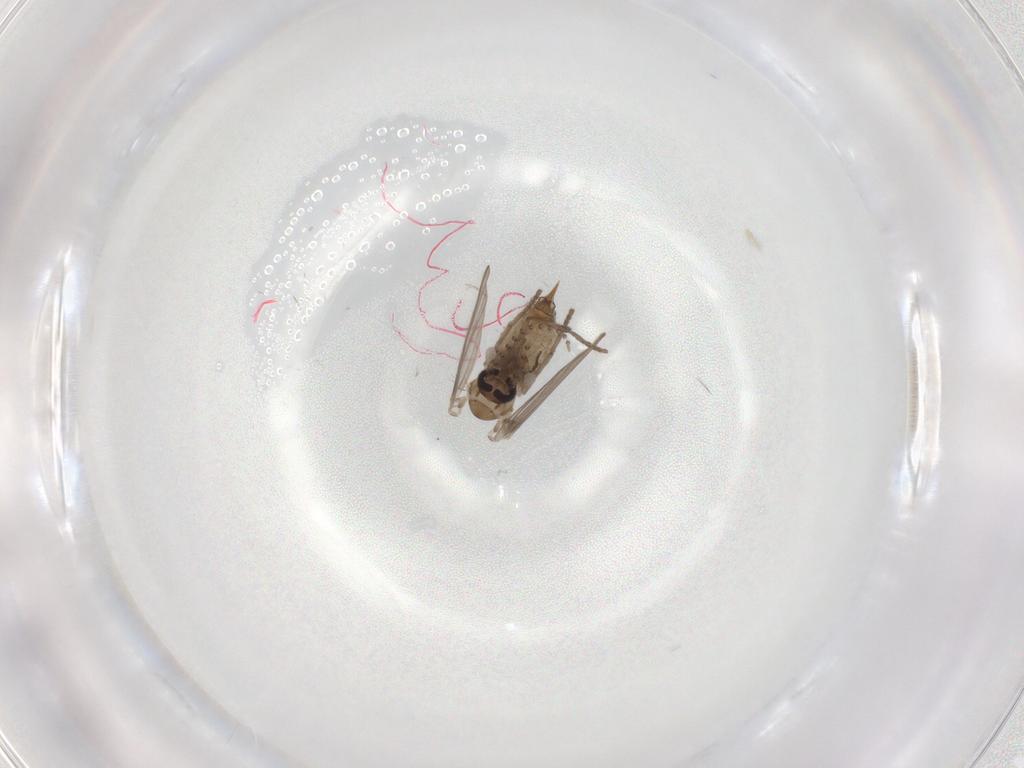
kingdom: Animalia
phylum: Arthropoda
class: Insecta
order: Diptera
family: Psychodidae
